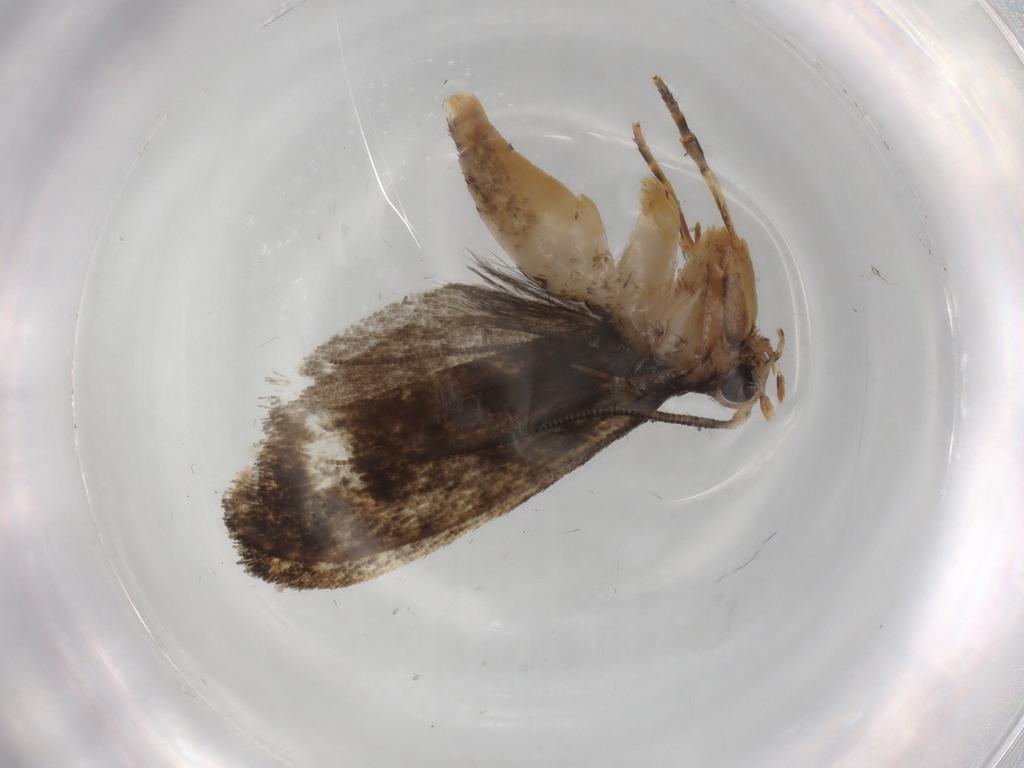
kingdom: Animalia
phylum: Arthropoda
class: Insecta
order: Lepidoptera
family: Tineidae
